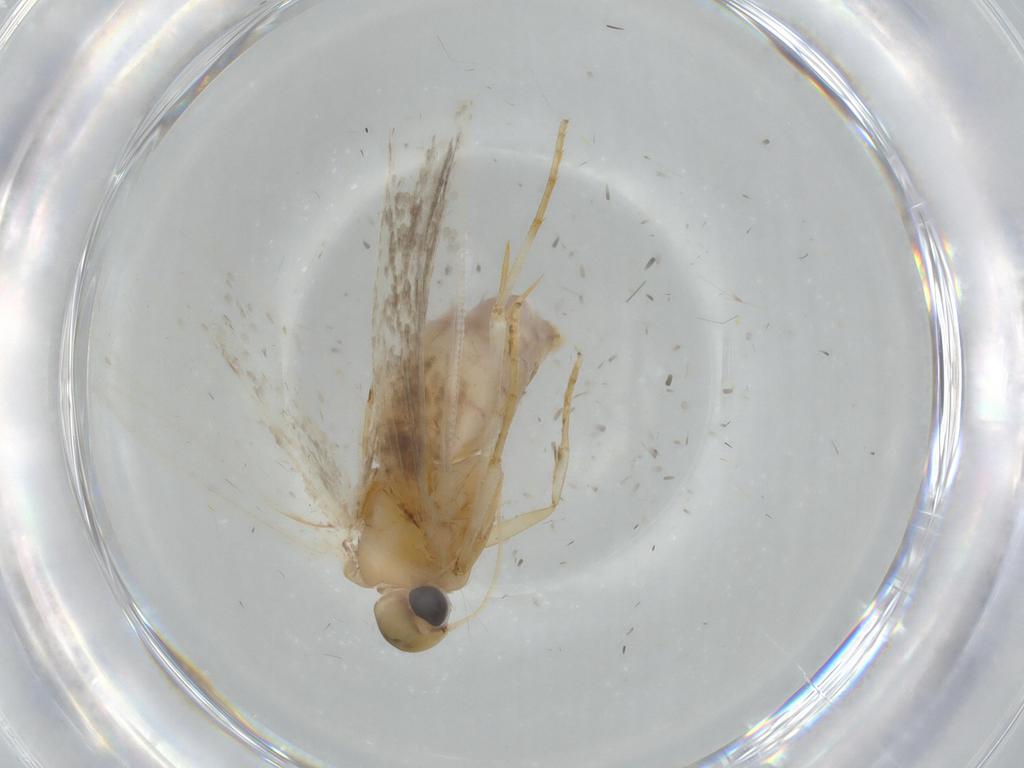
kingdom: Animalia
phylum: Arthropoda
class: Insecta
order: Lepidoptera
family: Gelechiidae
